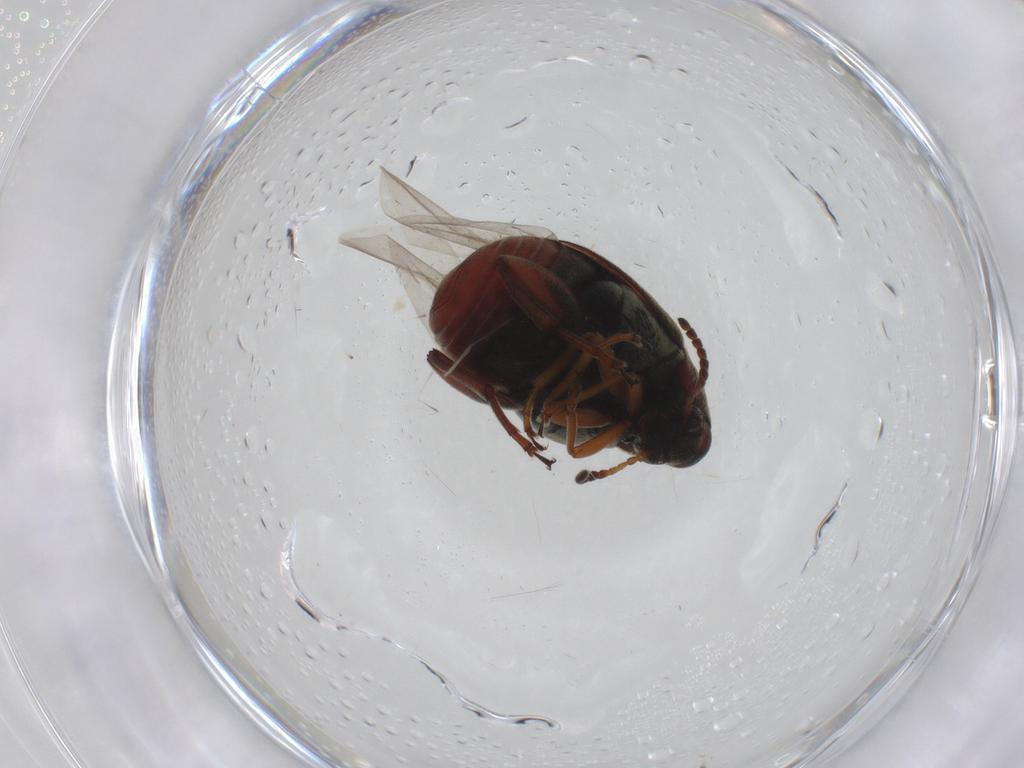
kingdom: Animalia
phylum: Arthropoda
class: Insecta
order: Coleoptera
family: Chrysomelidae
